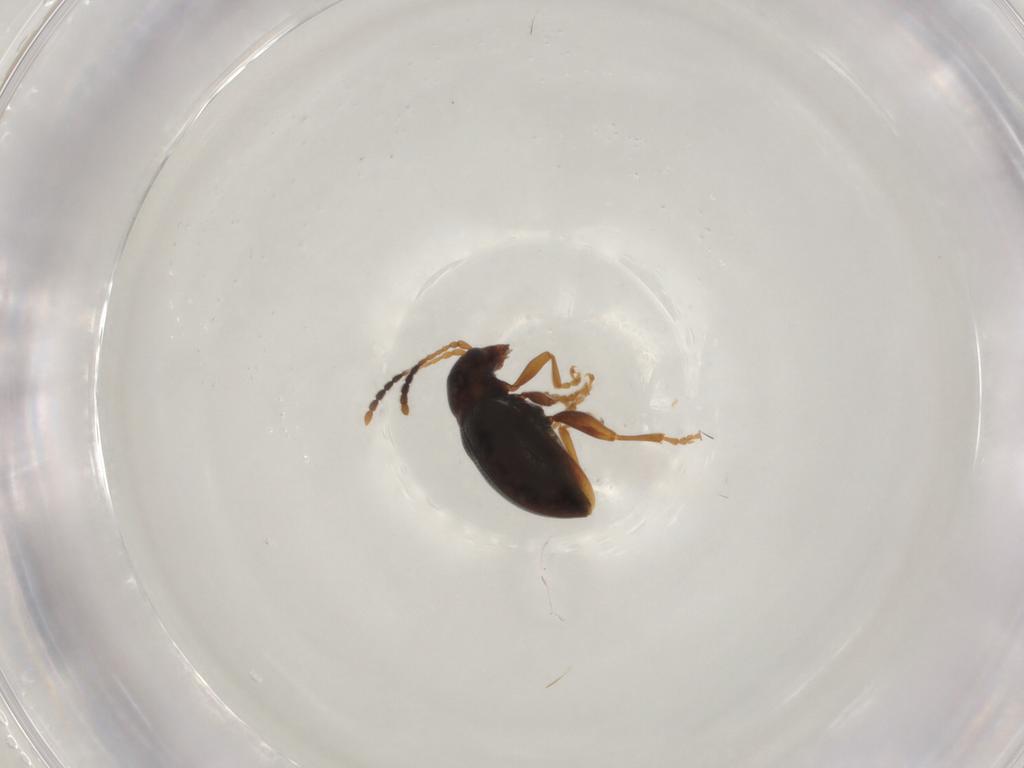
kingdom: Animalia
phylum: Arthropoda
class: Insecta
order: Coleoptera
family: Chrysomelidae
